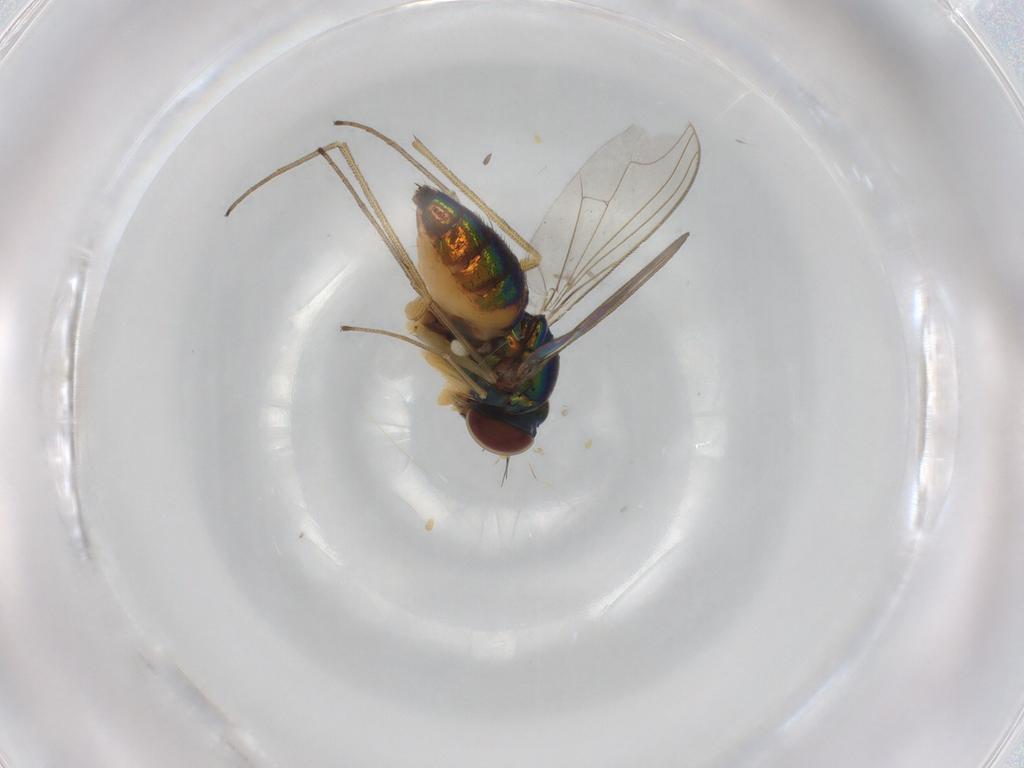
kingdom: Animalia
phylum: Arthropoda
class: Insecta
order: Diptera
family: Dolichopodidae
